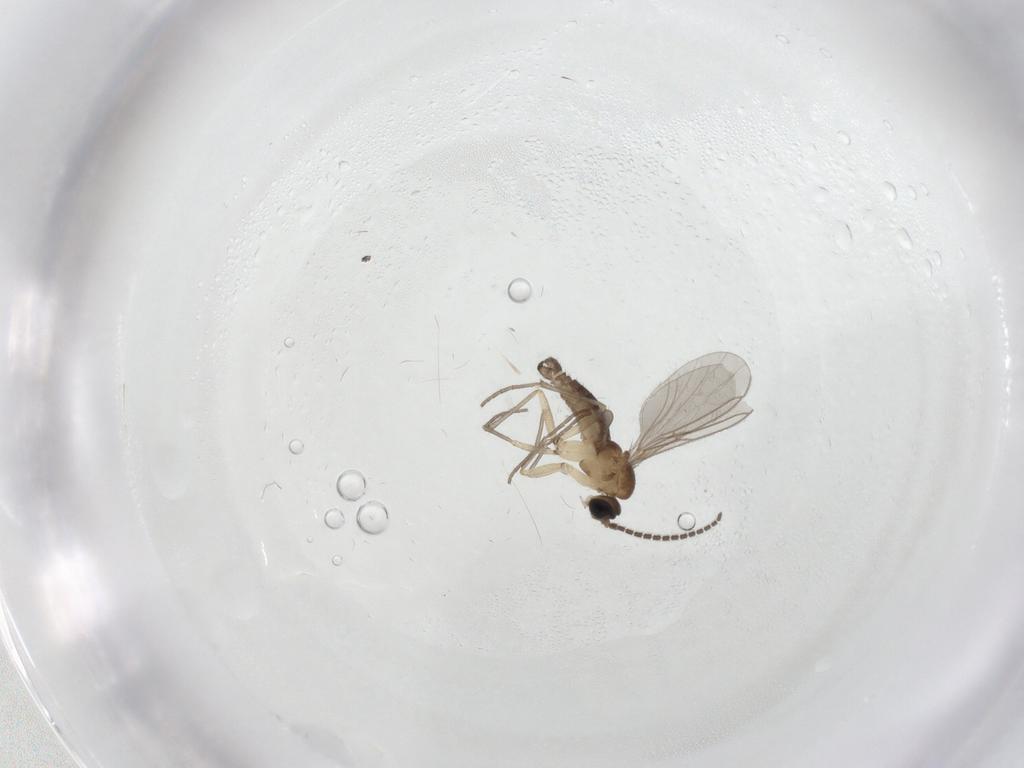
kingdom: Animalia
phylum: Arthropoda
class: Insecta
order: Diptera
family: Sciaridae
